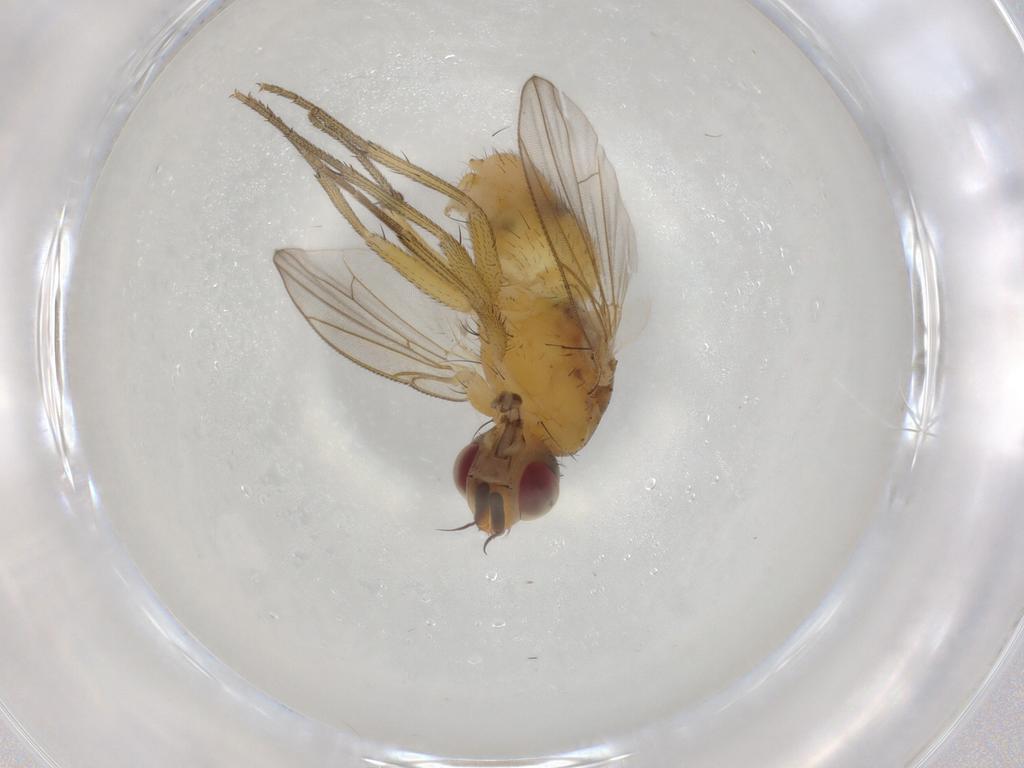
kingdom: Animalia
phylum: Arthropoda
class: Insecta
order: Diptera
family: Muscidae
